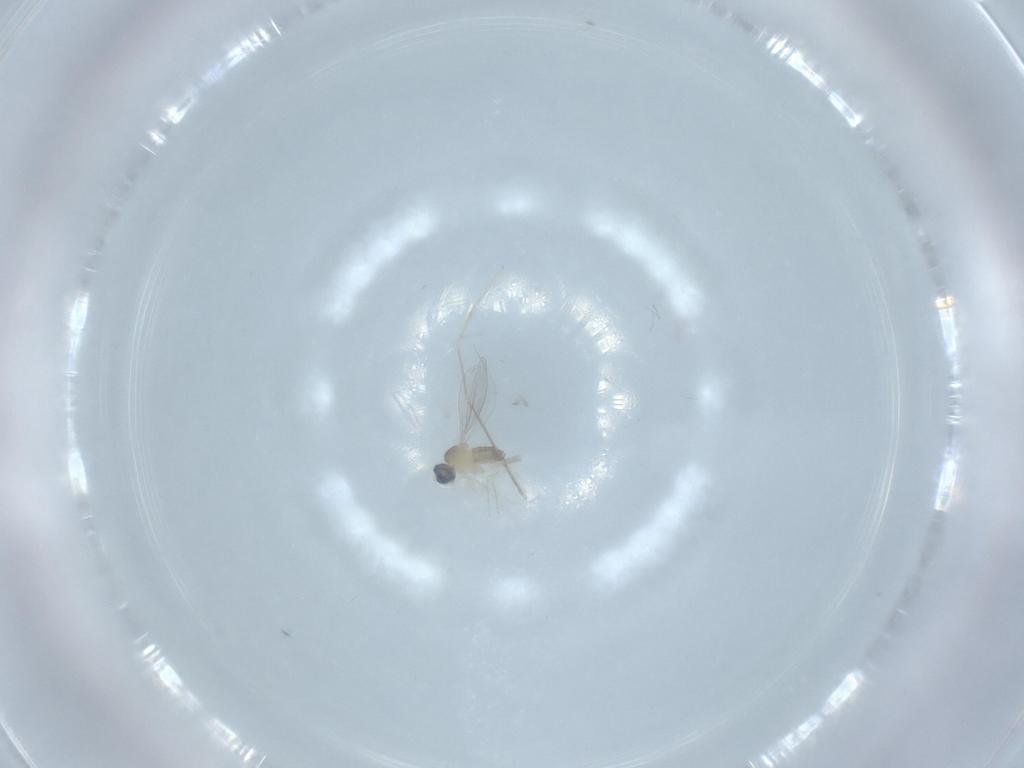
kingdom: Animalia
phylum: Arthropoda
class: Insecta
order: Diptera
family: Cecidomyiidae
